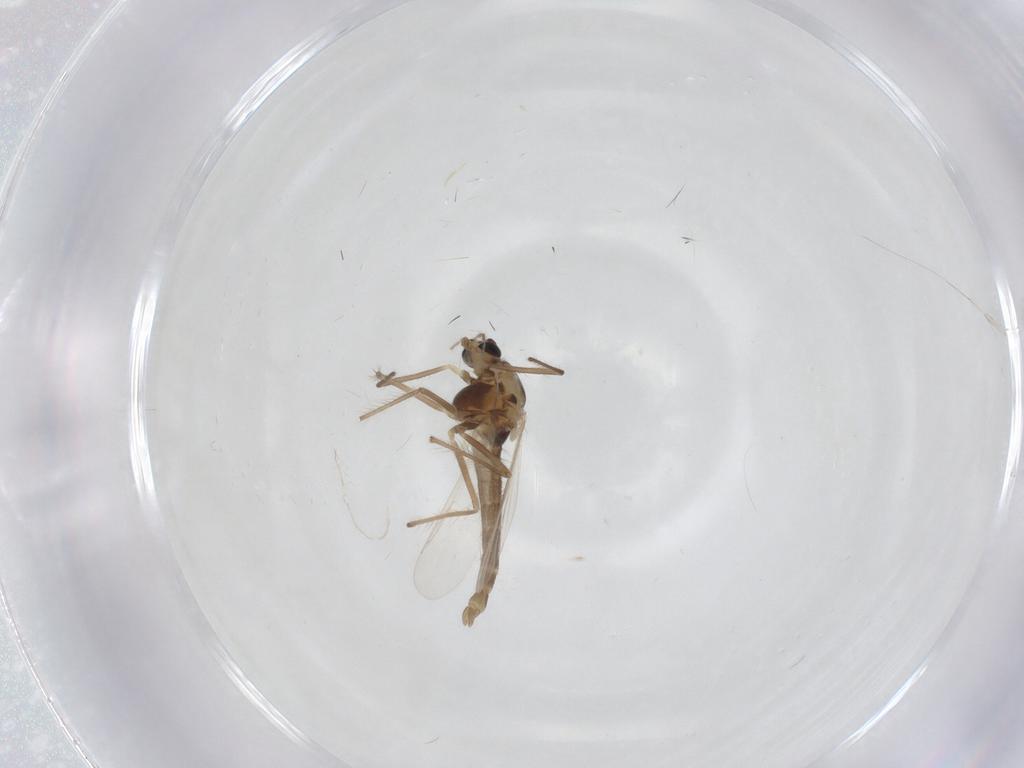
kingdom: Animalia
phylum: Arthropoda
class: Insecta
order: Diptera
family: Chironomidae
